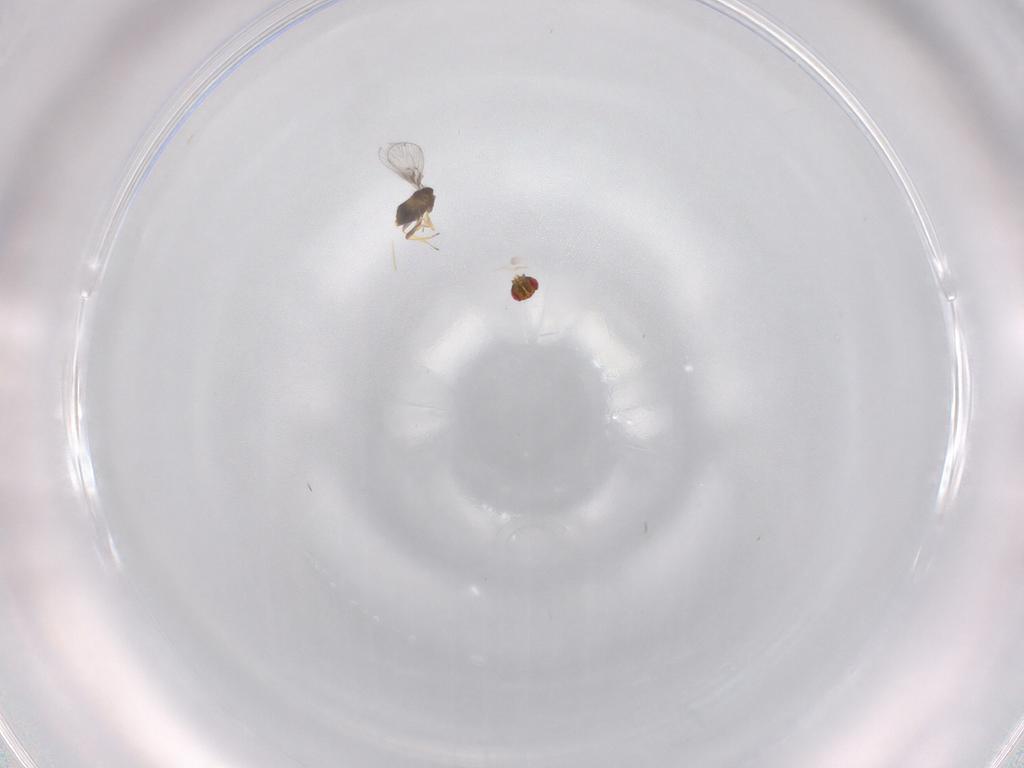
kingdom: Animalia
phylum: Arthropoda
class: Insecta
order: Hymenoptera
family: Trichogrammatidae
